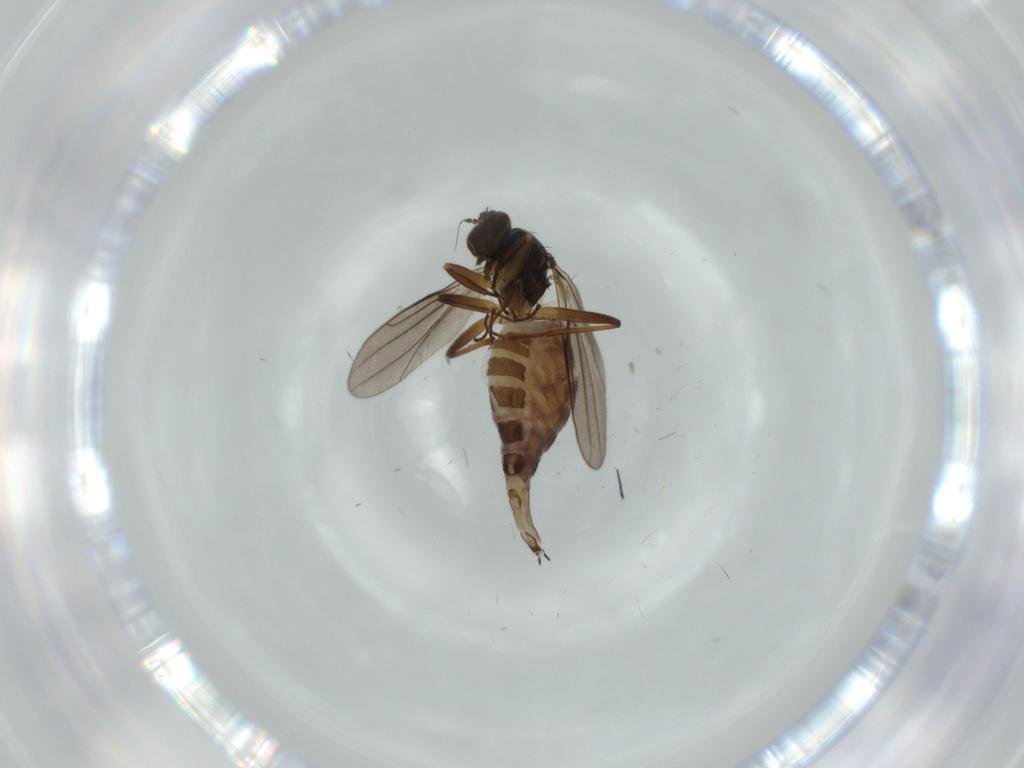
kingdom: Animalia
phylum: Arthropoda
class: Insecta
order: Diptera
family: Hybotidae
